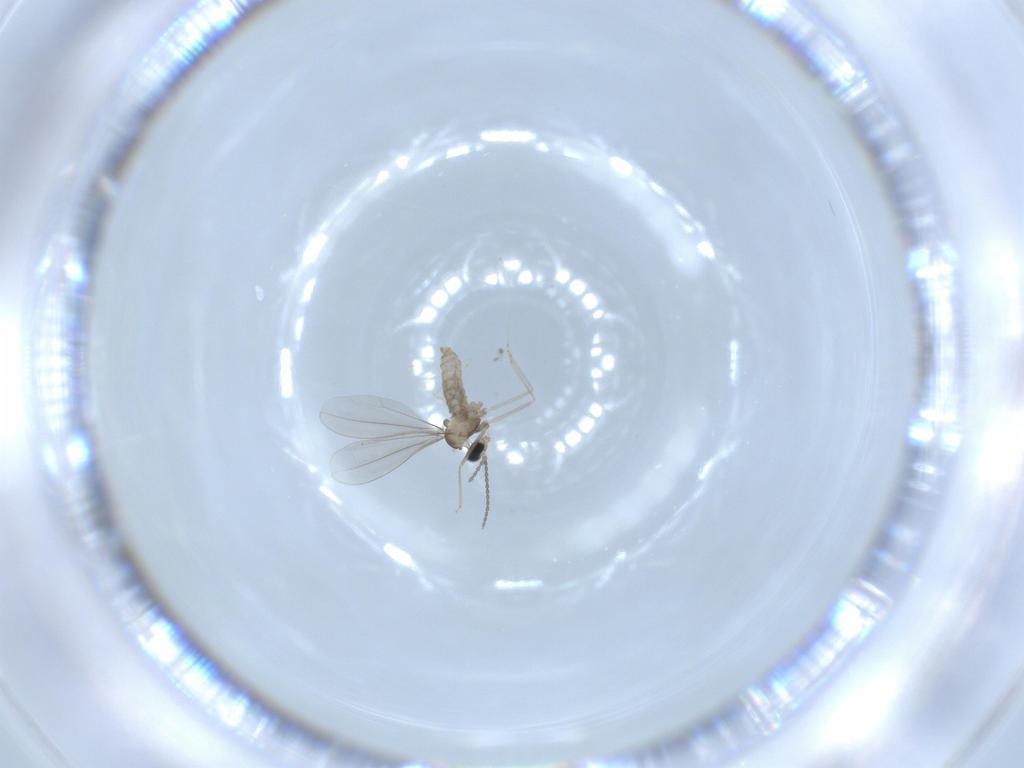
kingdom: Animalia
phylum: Arthropoda
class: Insecta
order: Diptera
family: Cecidomyiidae
